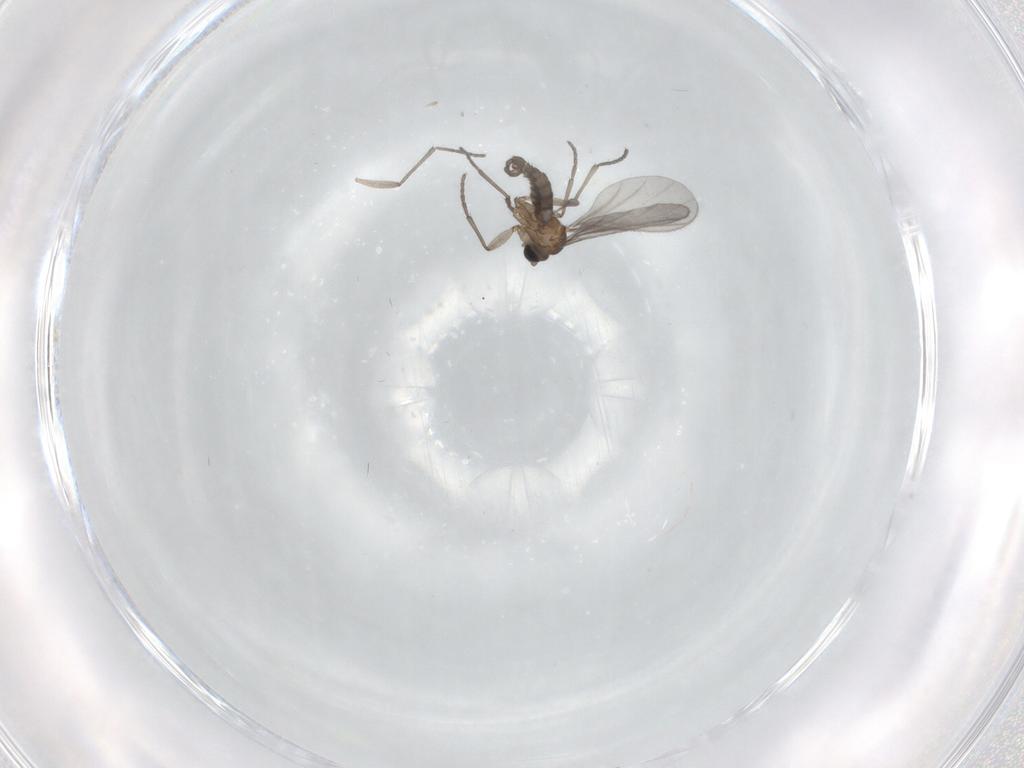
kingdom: Animalia
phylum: Arthropoda
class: Insecta
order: Diptera
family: Sciaridae
